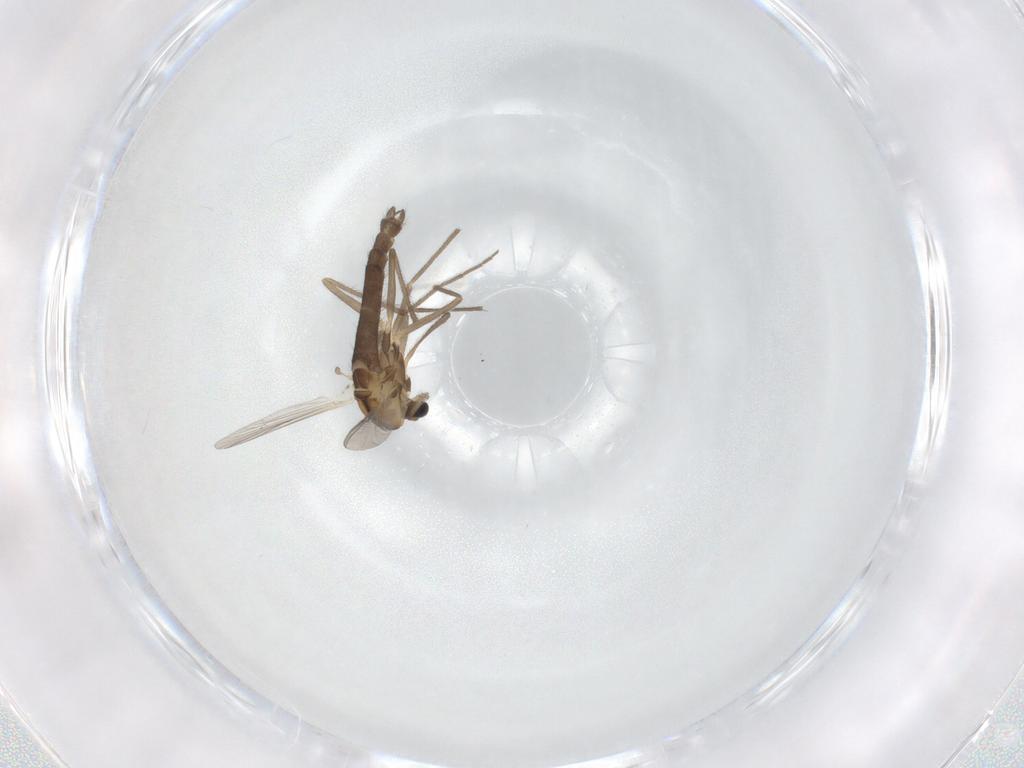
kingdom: Animalia
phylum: Arthropoda
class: Insecta
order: Diptera
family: Chironomidae
